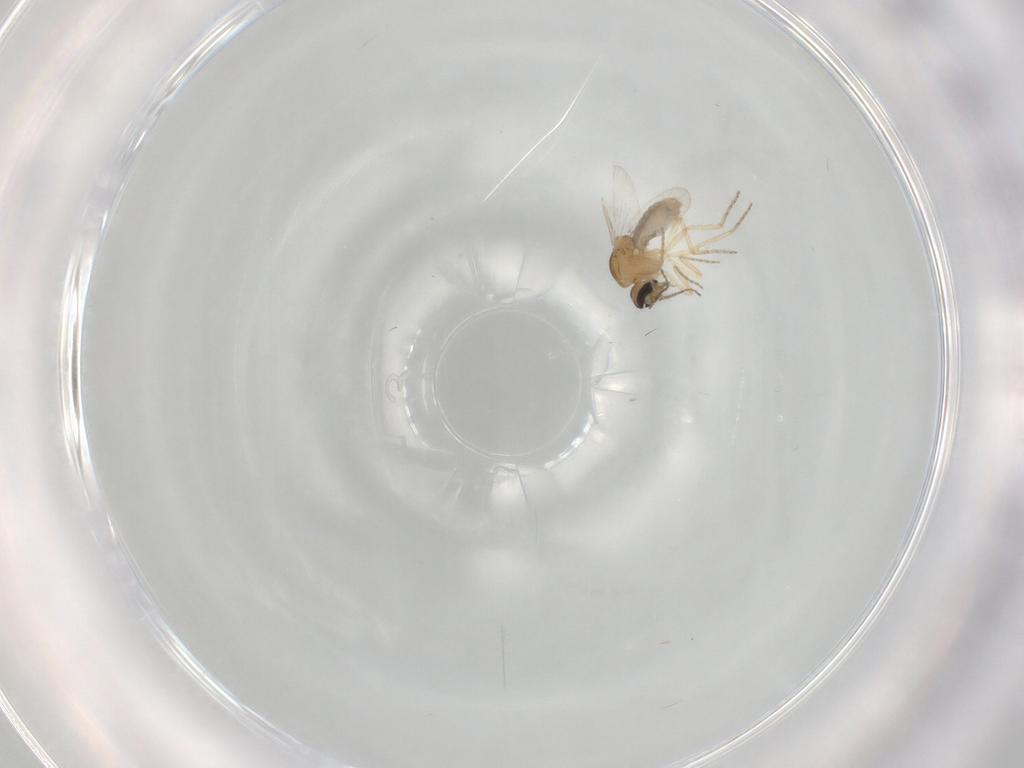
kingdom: Animalia
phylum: Arthropoda
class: Insecta
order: Diptera
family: Ceratopogonidae
